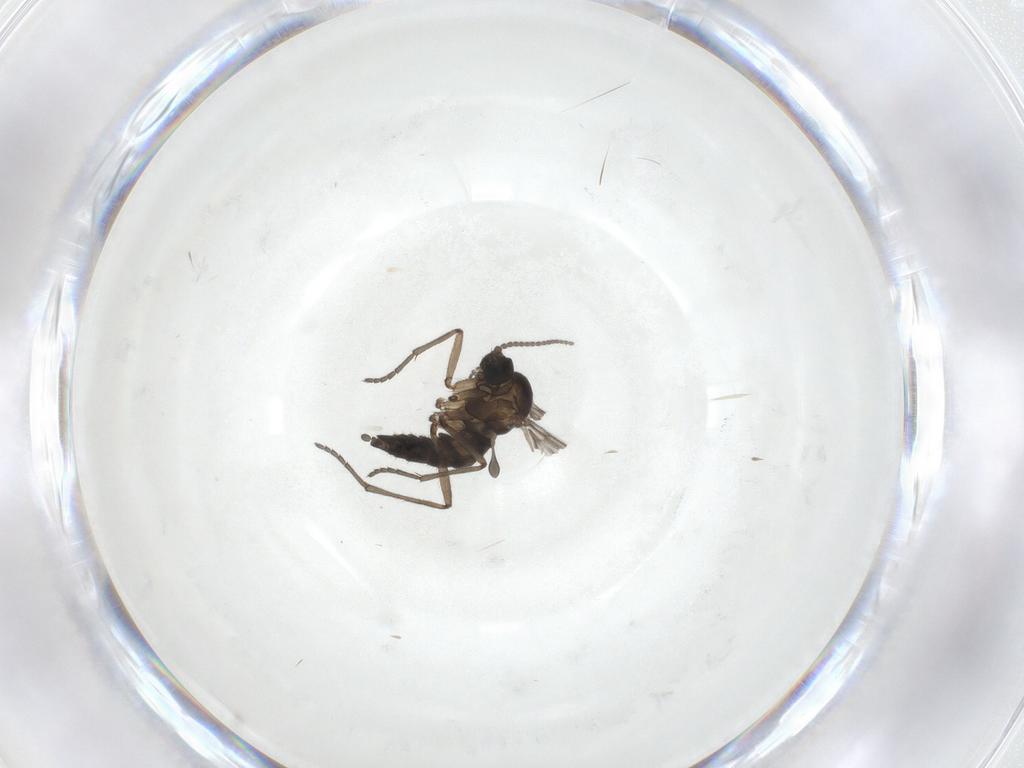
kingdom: Animalia
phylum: Arthropoda
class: Insecta
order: Diptera
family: Sciaridae
